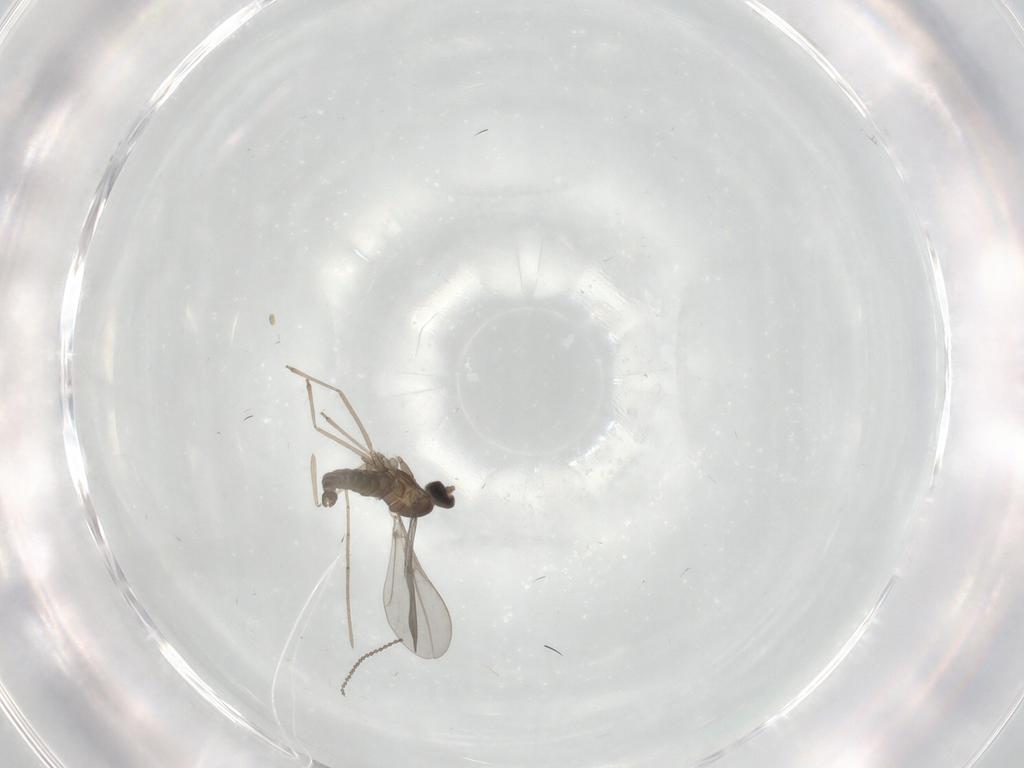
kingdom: Animalia
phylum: Arthropoda
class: Insecta
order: Diptera
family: Cecidomyiidae
